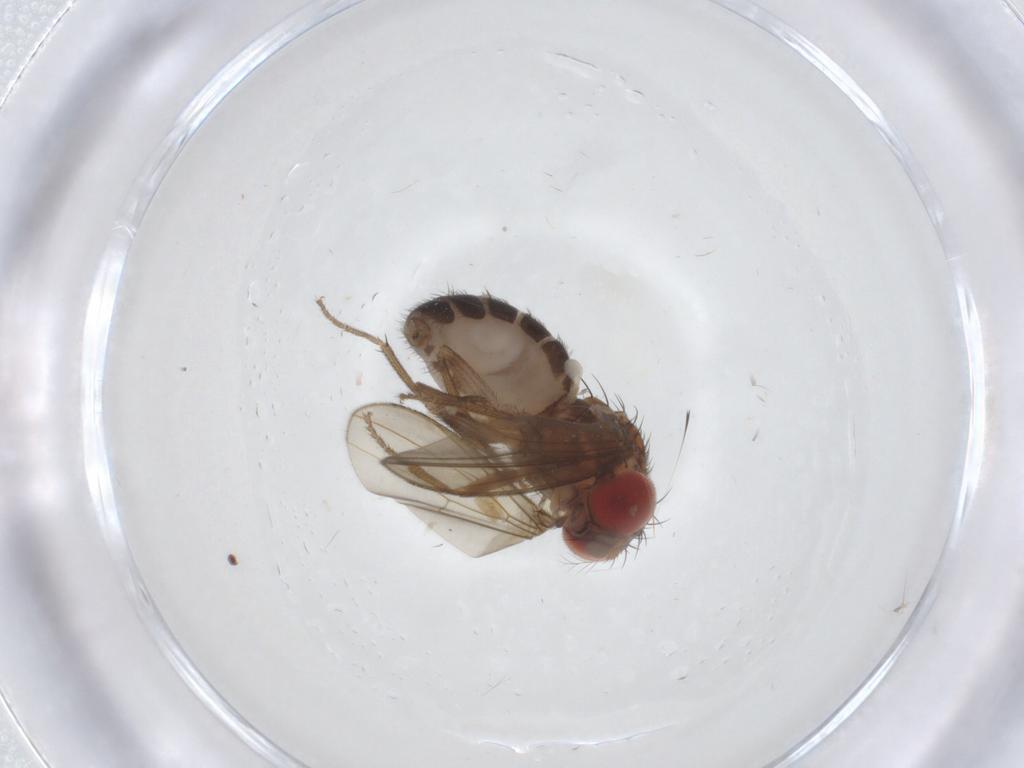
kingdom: Animalia
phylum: Arthropoda
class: Insecta
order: Diptera
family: Drosophilidae
